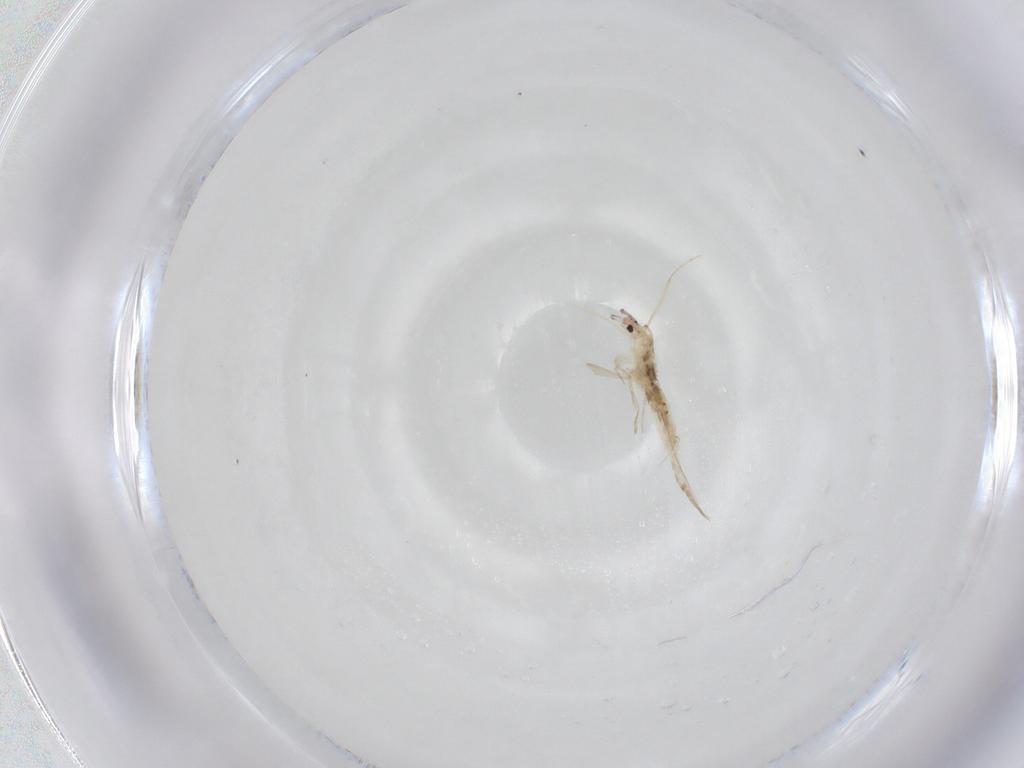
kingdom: Animalia
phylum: Arthropoda
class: Collembola
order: Entomobryomorpha
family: Entomobryidae
